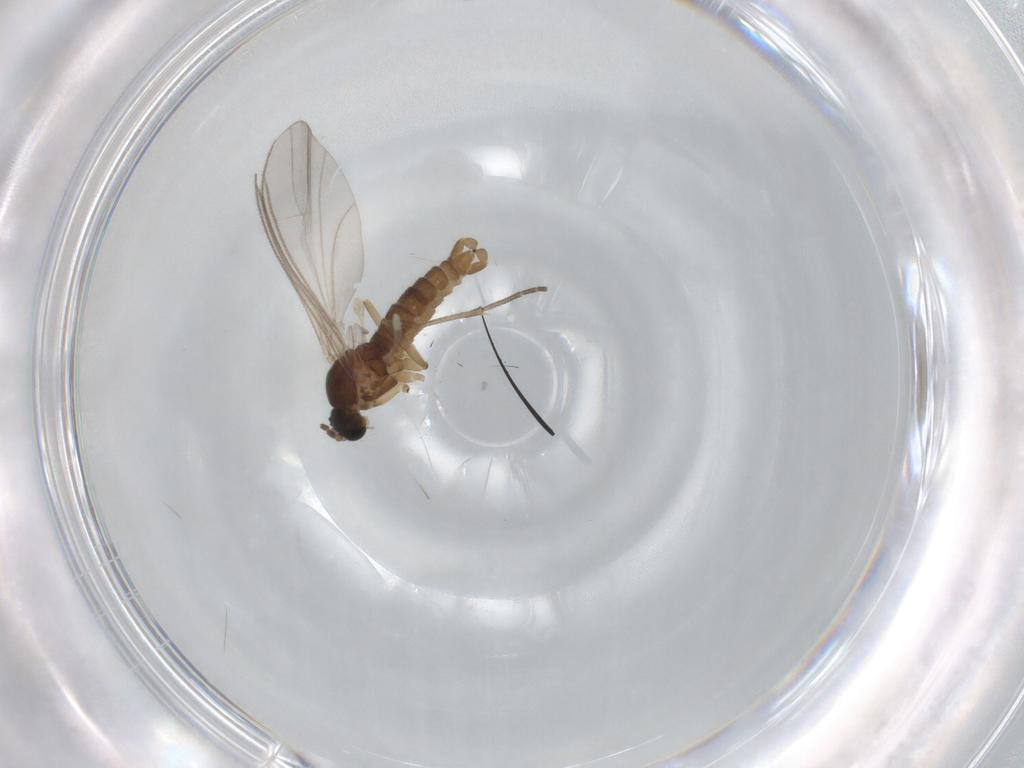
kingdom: Animalia
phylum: Arthropoda
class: Insecta
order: Diptera
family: Sciaridae
